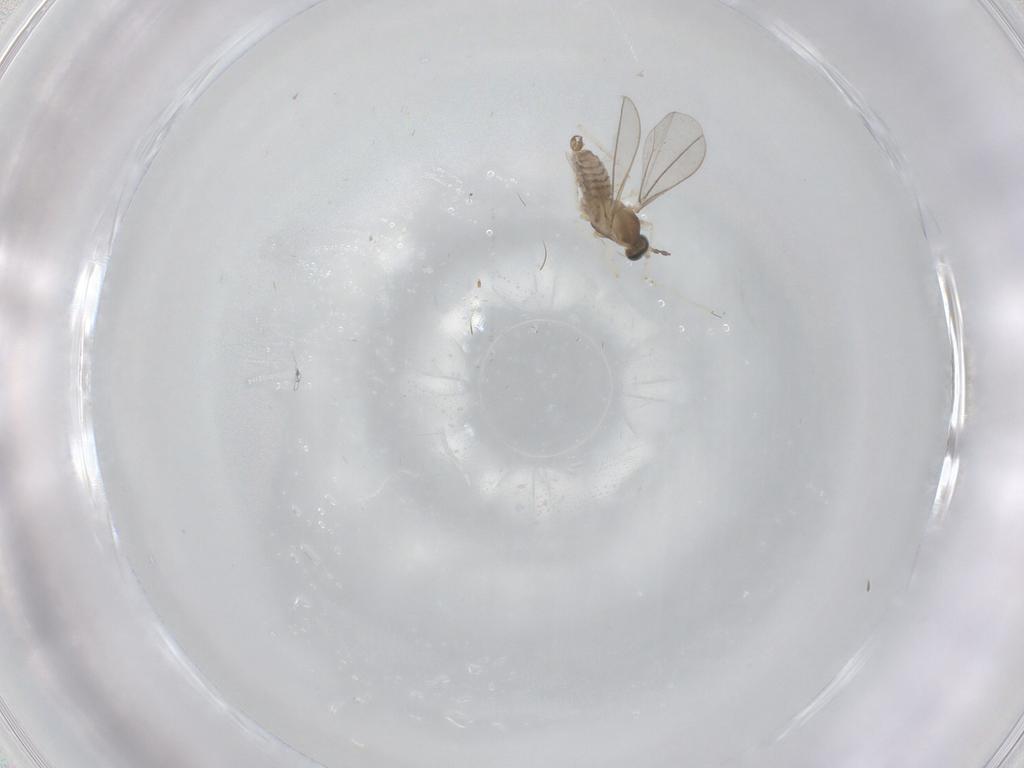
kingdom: Animalia
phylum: Arthropoda
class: Insecta
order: Diptera
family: Cecidomyiidae
